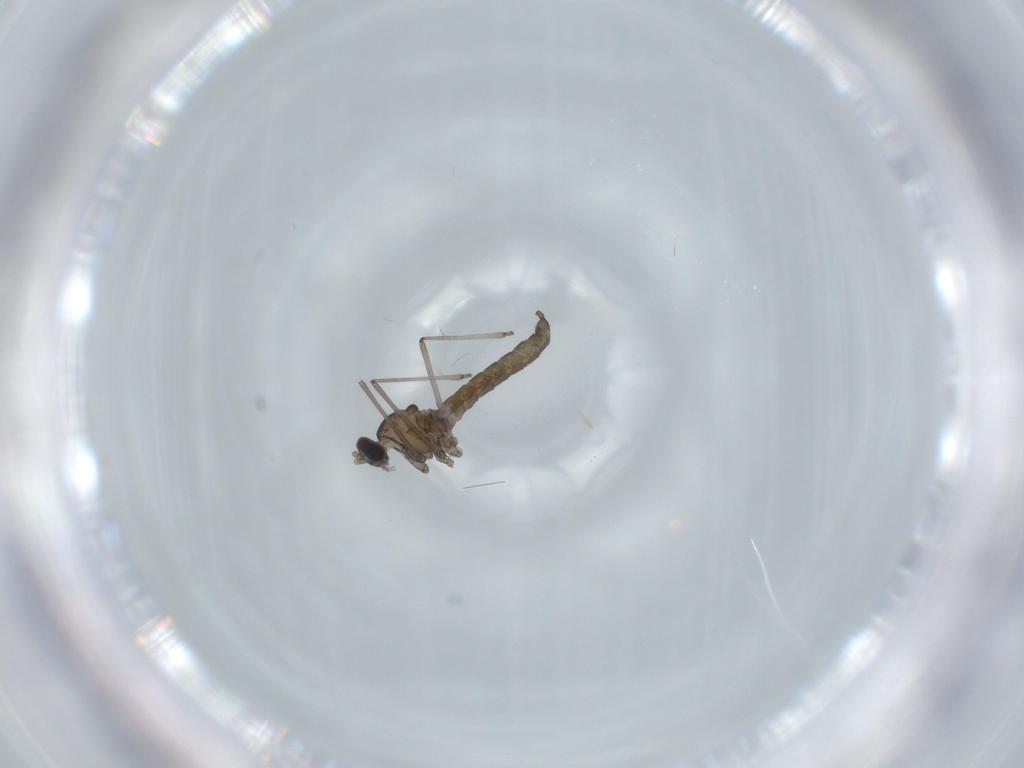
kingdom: Animalia
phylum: Arthropoda
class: Insecta
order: Diptera
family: Cecidomyiidae
